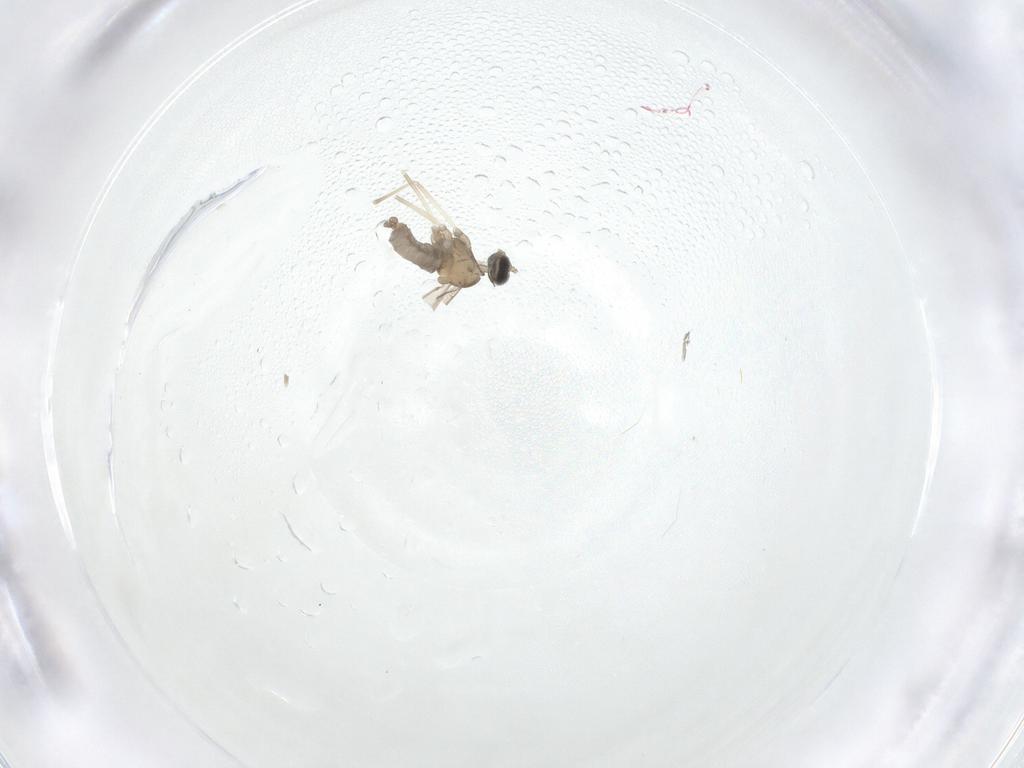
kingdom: Animalia
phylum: Arthropoda
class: Insecta
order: Diptera
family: Cecidomyiidae
